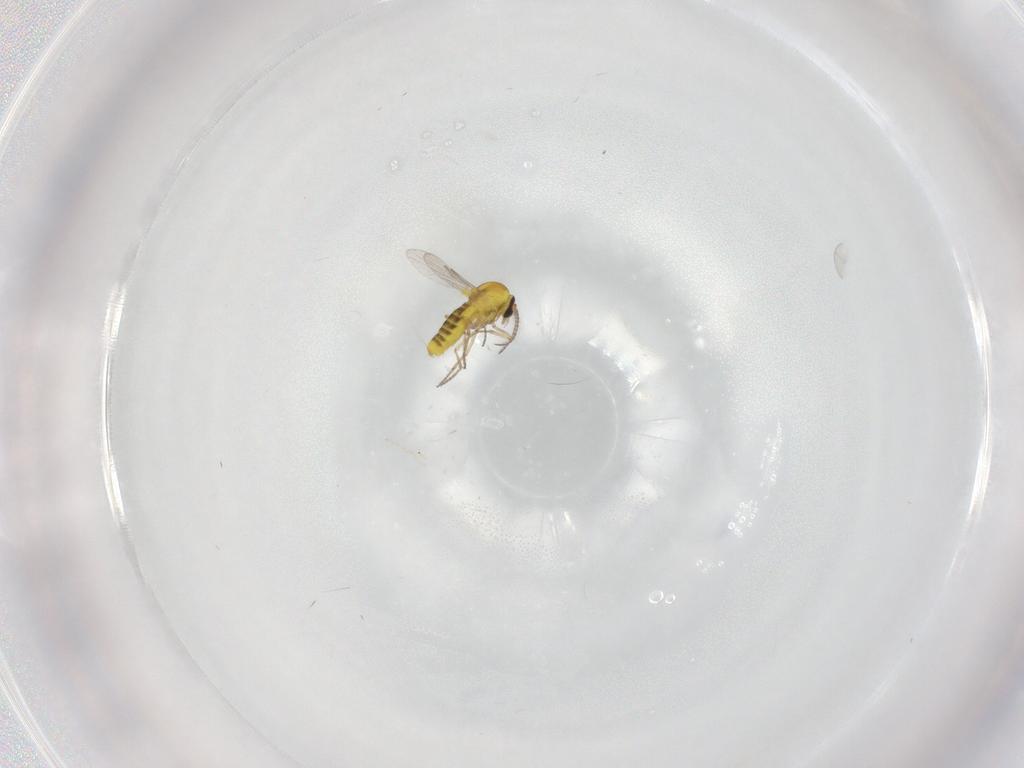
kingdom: Animalia
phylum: Arthropoda
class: Insecta
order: Diptera
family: Ceratopogonidae
